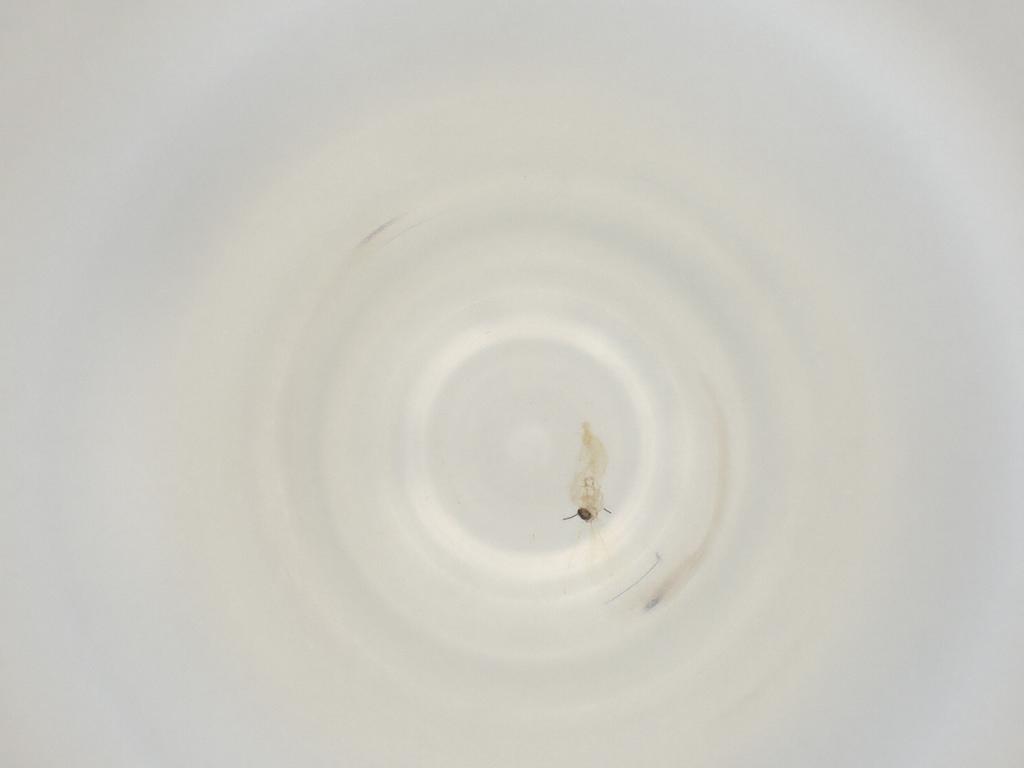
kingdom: Animalia
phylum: Arthropoda
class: Insecta
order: Diptera
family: Cecidomyiidae
